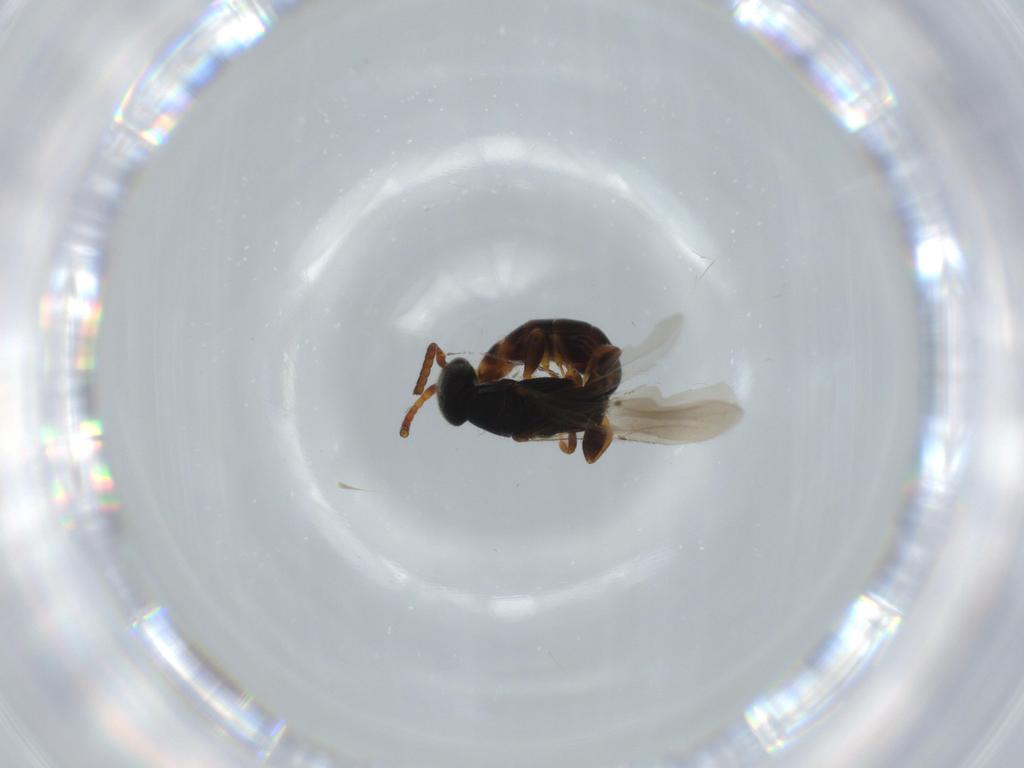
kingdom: Animalia
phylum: Arthropoda
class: Insecta
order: Hymenoptera
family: Bethylidae
